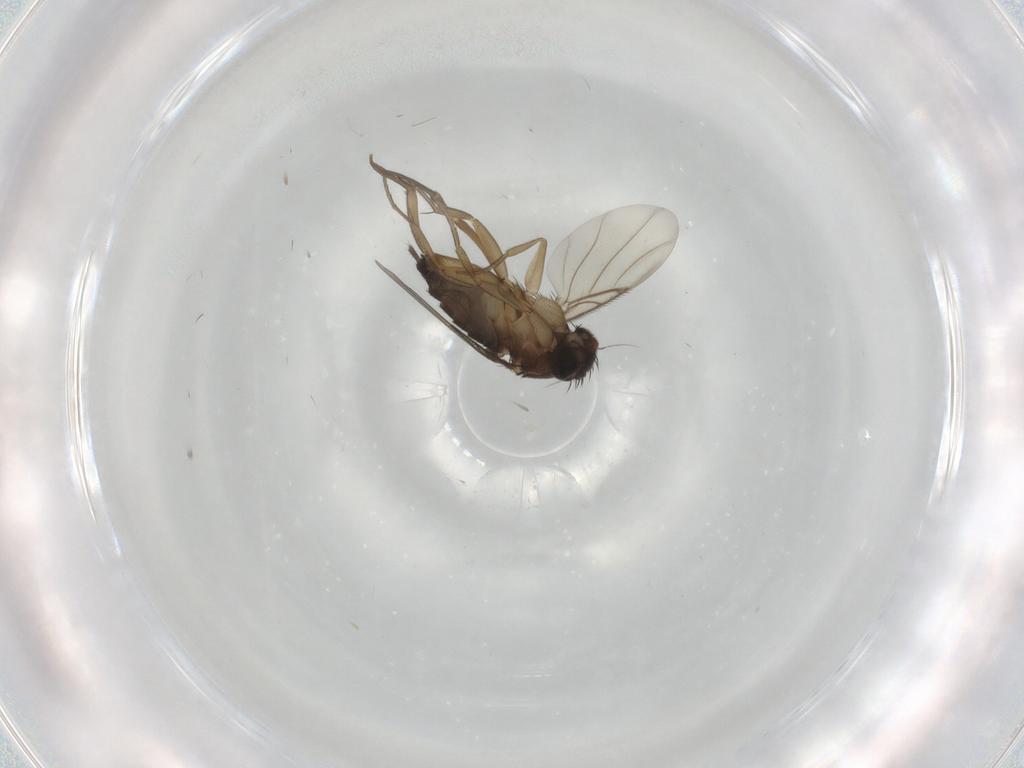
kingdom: Animalia
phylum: Arthropoda
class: Insecta
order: Diptera
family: Phoridae
